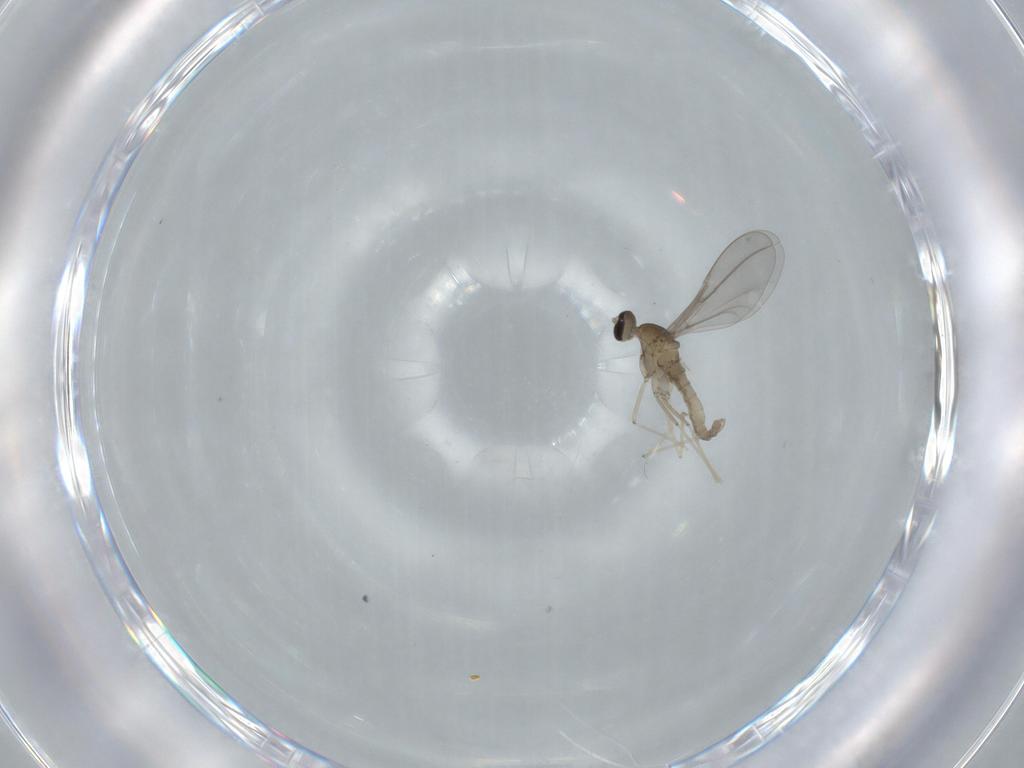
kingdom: Animalia
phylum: Arthropoda
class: Insecta
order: Diptera
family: Cecidomyiidae
